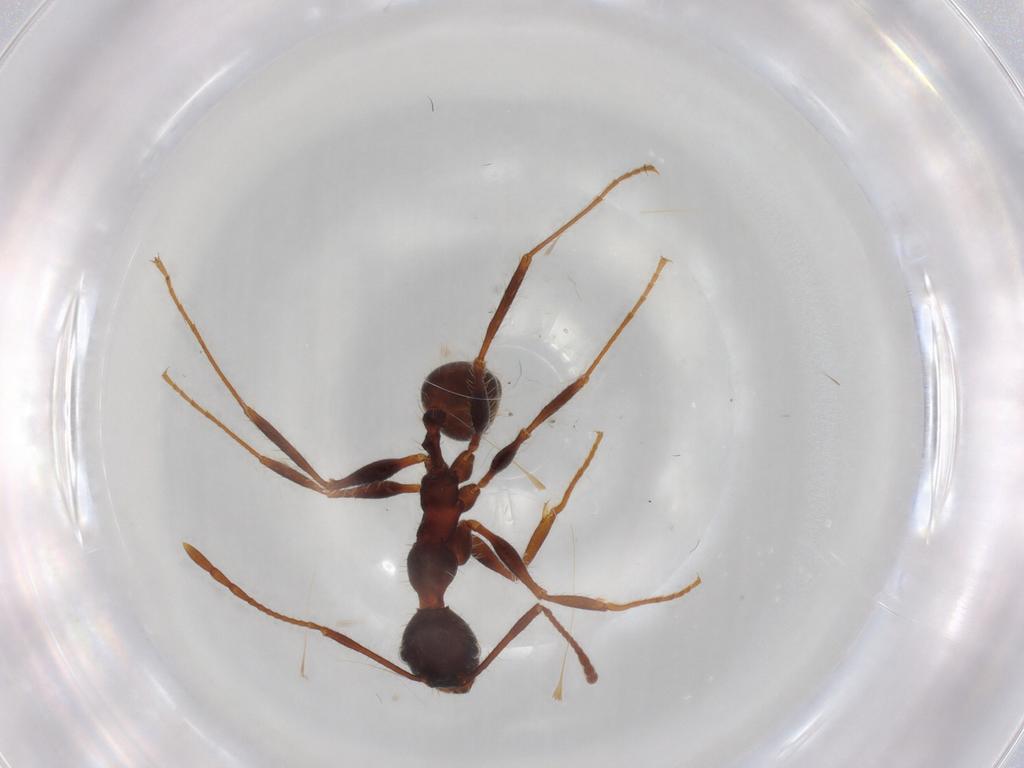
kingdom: Animalia
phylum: Arthropoda
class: Insecta
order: Hymenoptera
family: Formicidae
